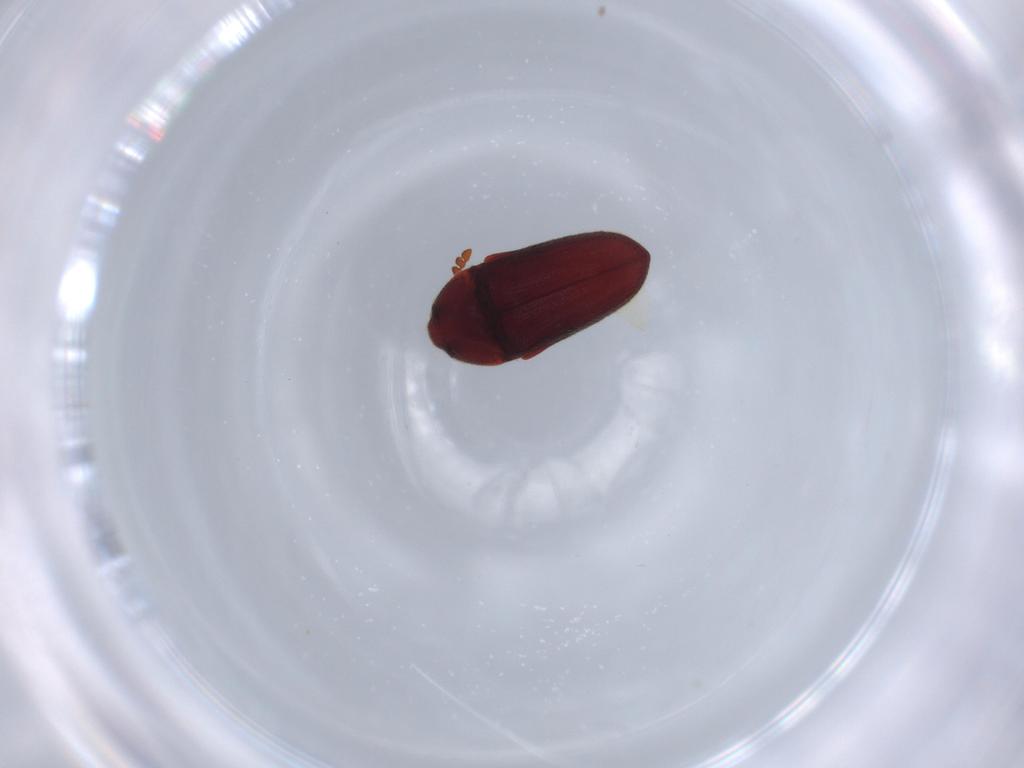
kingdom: Animalia
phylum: Arthropoda
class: Insecta
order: Coleoptera
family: Throscidae
